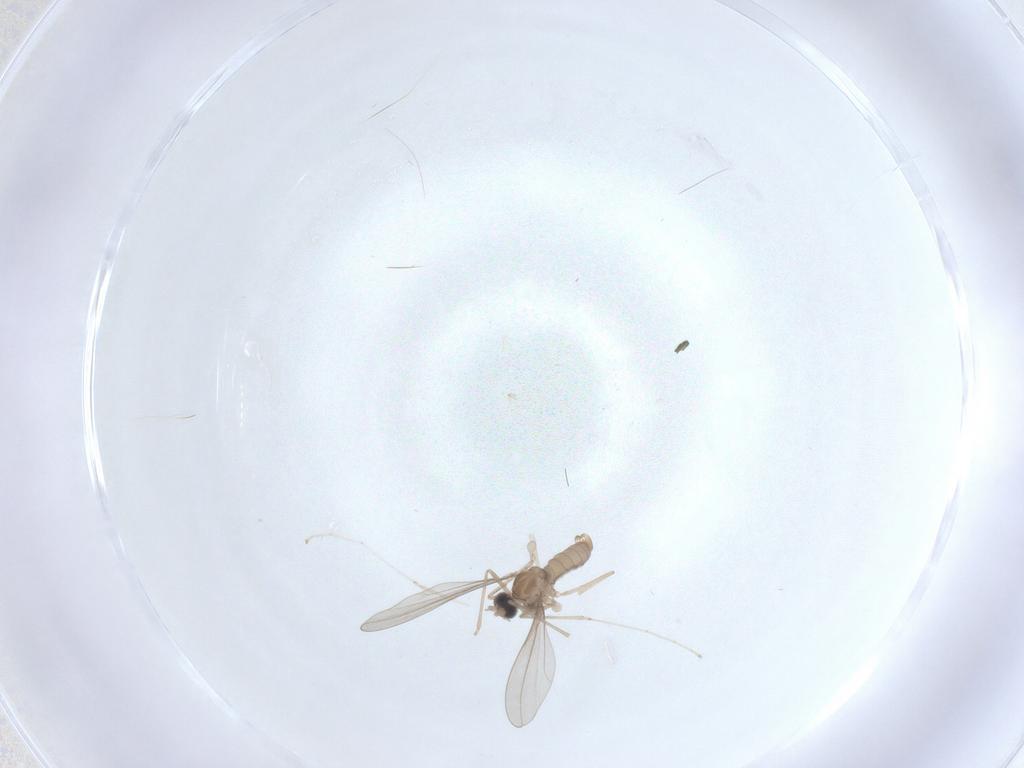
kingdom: Animalia
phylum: Arthropoda
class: Insecta
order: Diptera
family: Cecidomyiidae
